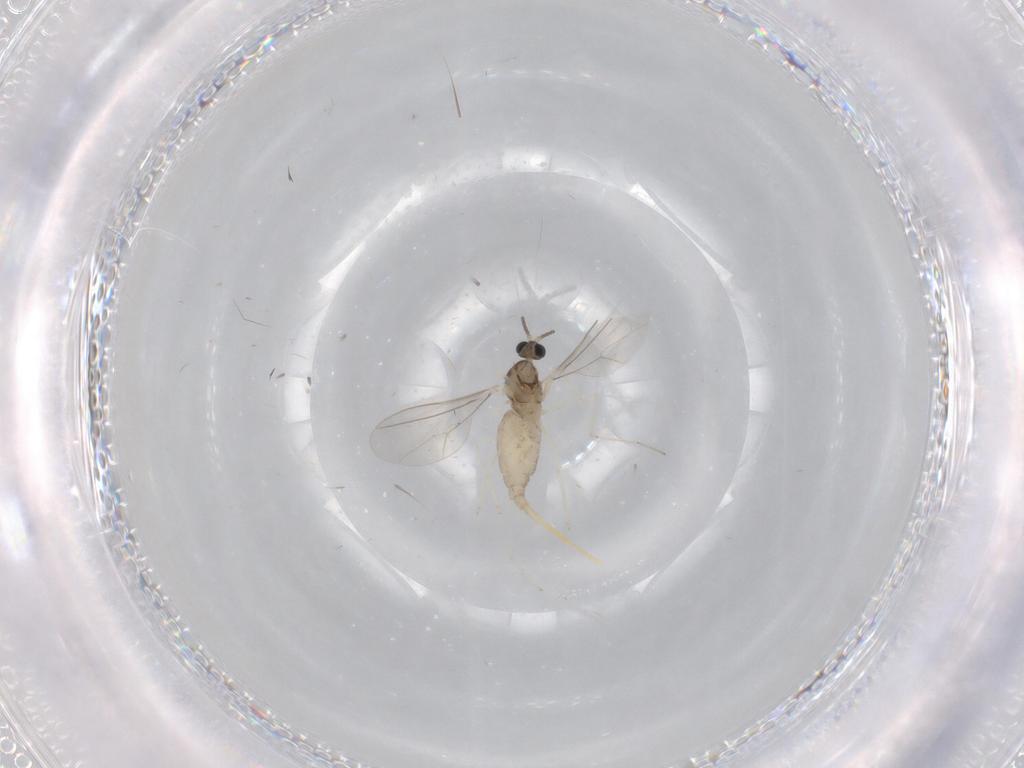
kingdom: Animalia
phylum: Arthropoda
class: Insecta
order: Diptera
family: Cecidomyiidae
